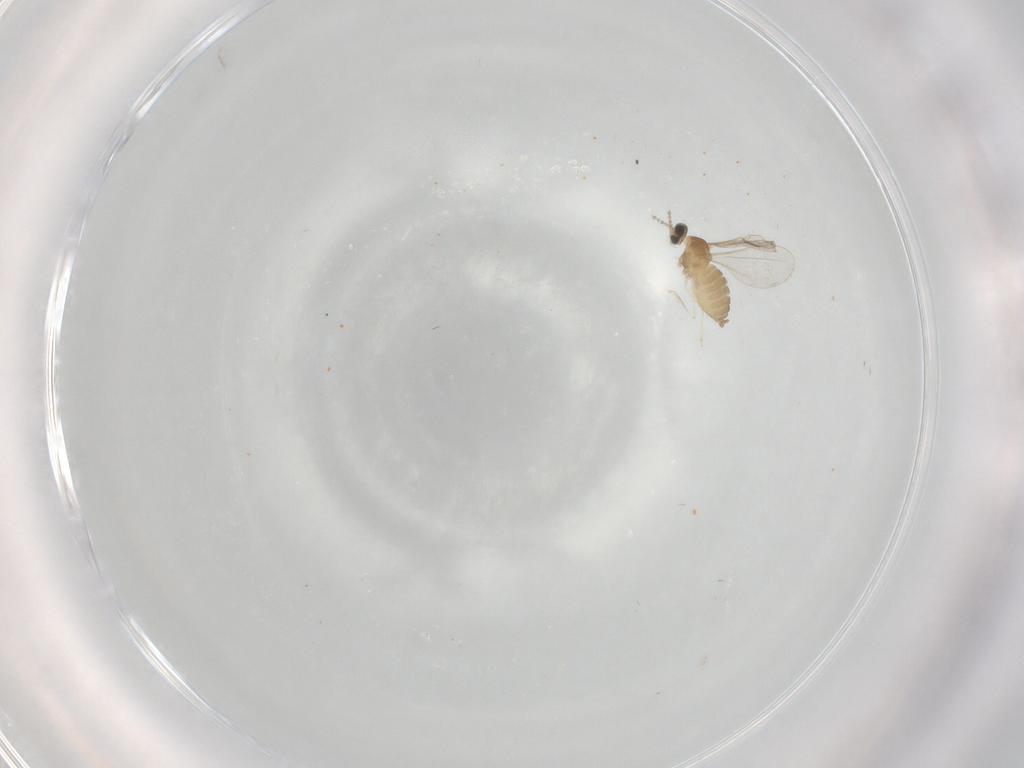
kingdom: Animalia
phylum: Arthropoda
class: Insecta
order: Diptera
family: Cecidomyiidae
